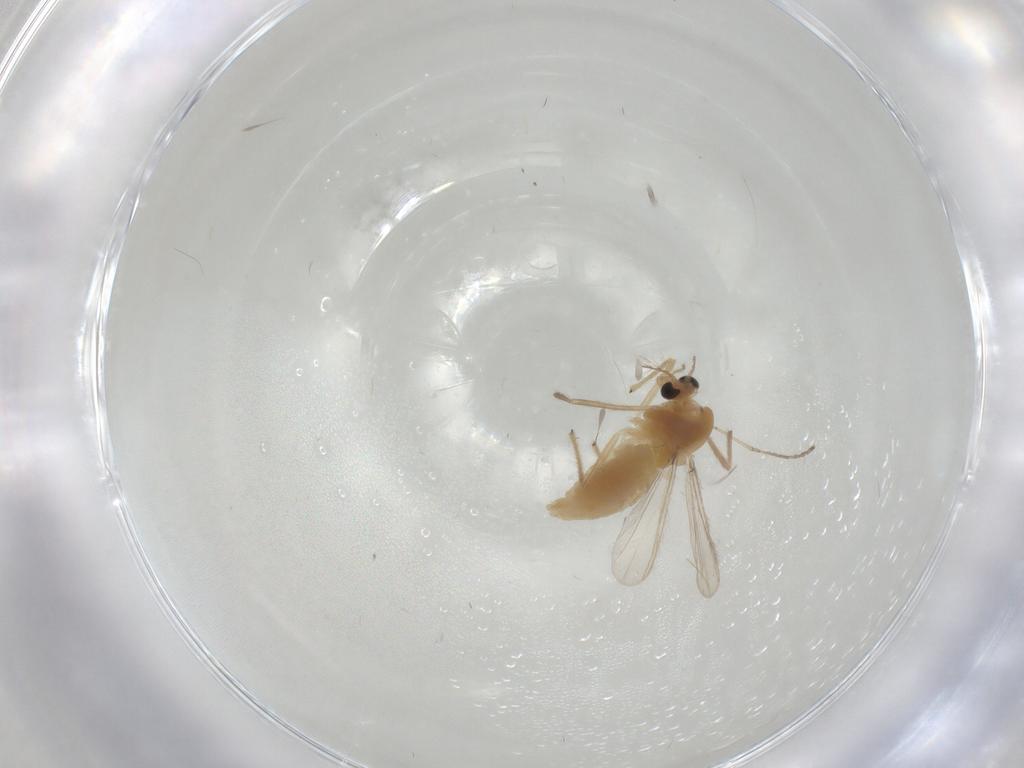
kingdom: Animalia
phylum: Arthropoda
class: Insecta
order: Diptera
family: Chironomidae
